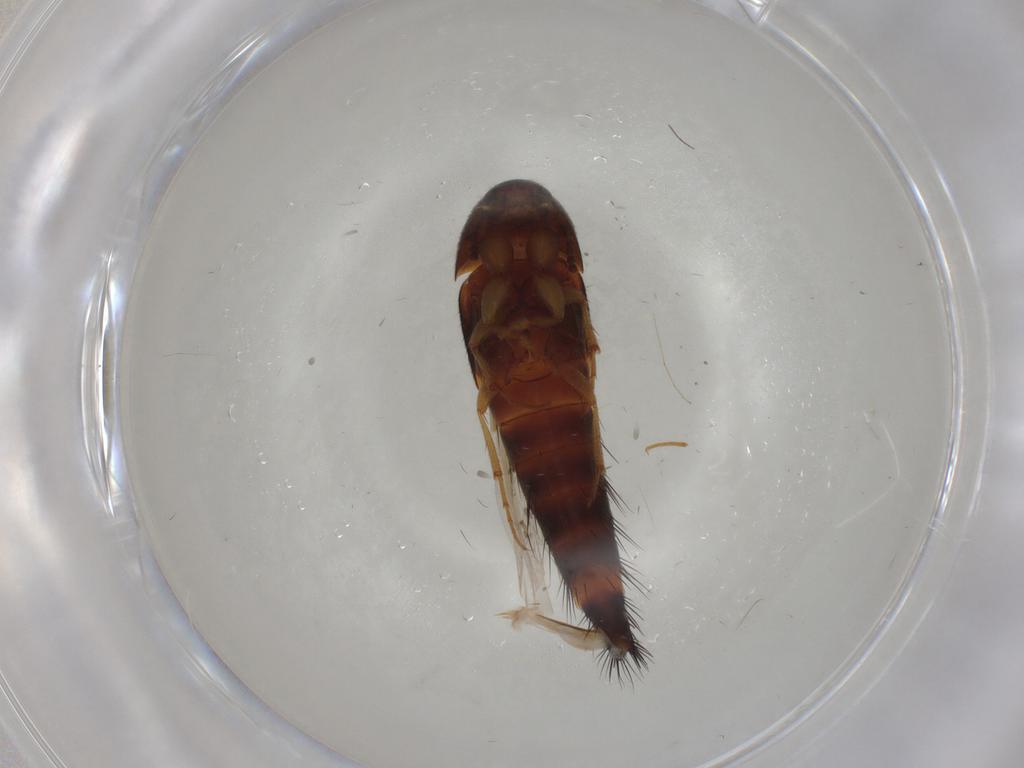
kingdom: Animalia
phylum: Arthropoda
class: Insecta
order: Coleoptera
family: Staphylinidae
